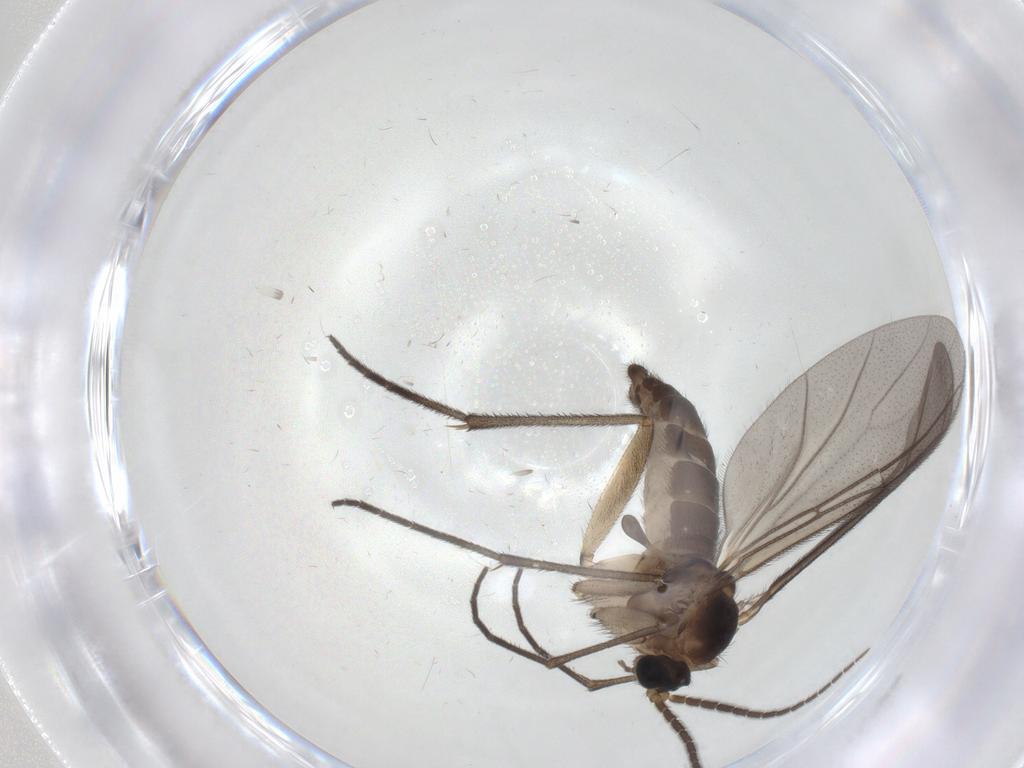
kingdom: Animalia
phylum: Arthropoda
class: Insecta
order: Diptera
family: Sciaridae
